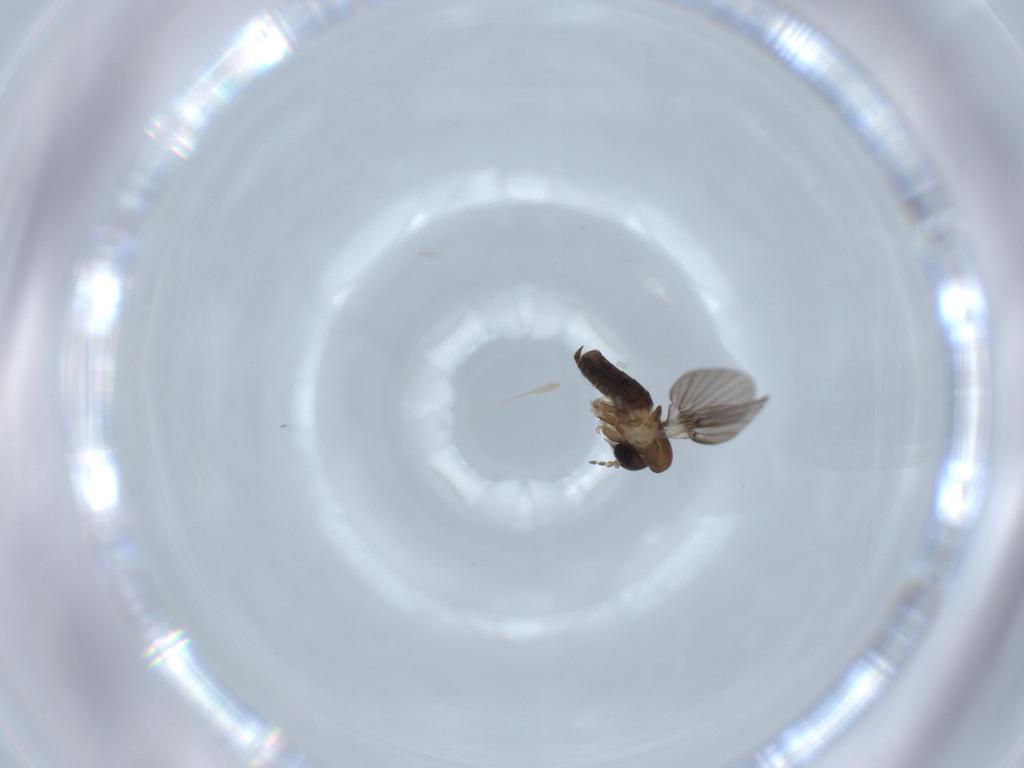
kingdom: Animalia
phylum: Arthropoda
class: Insecta
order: Diptera
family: Psychodidae
